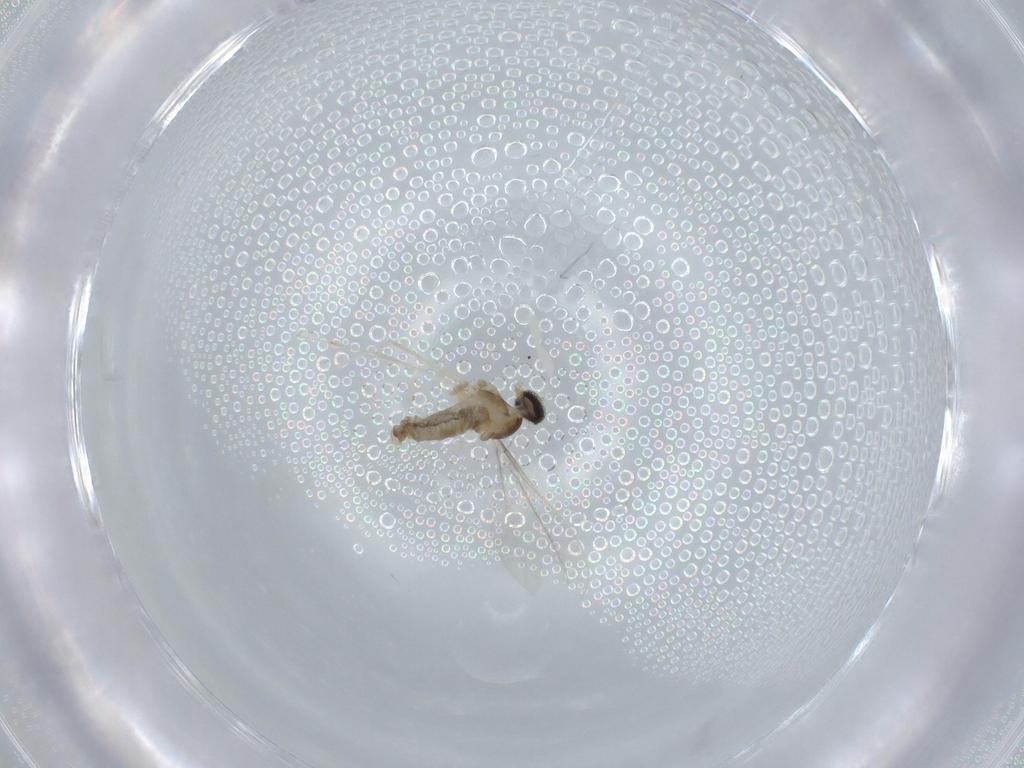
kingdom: Animalia
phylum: Arthropoda
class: Insecta
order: Diptera
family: Cecidomyiidae
